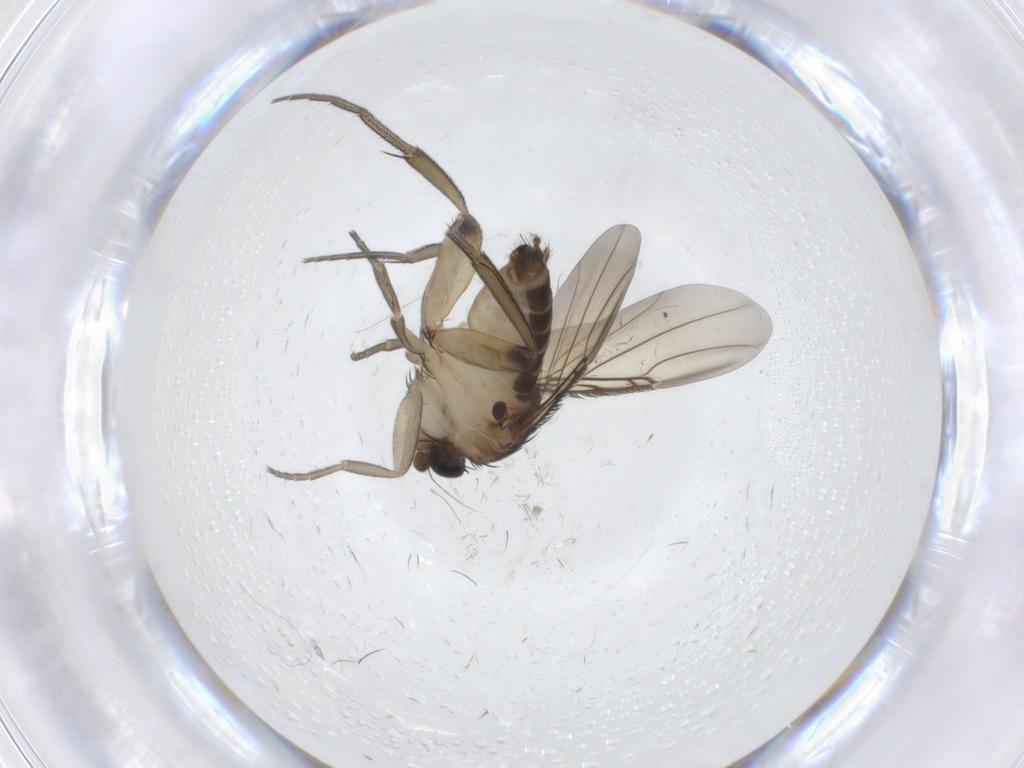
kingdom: Animalia
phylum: Arthropoda
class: Insecta
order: Diptera
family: Phoridae
